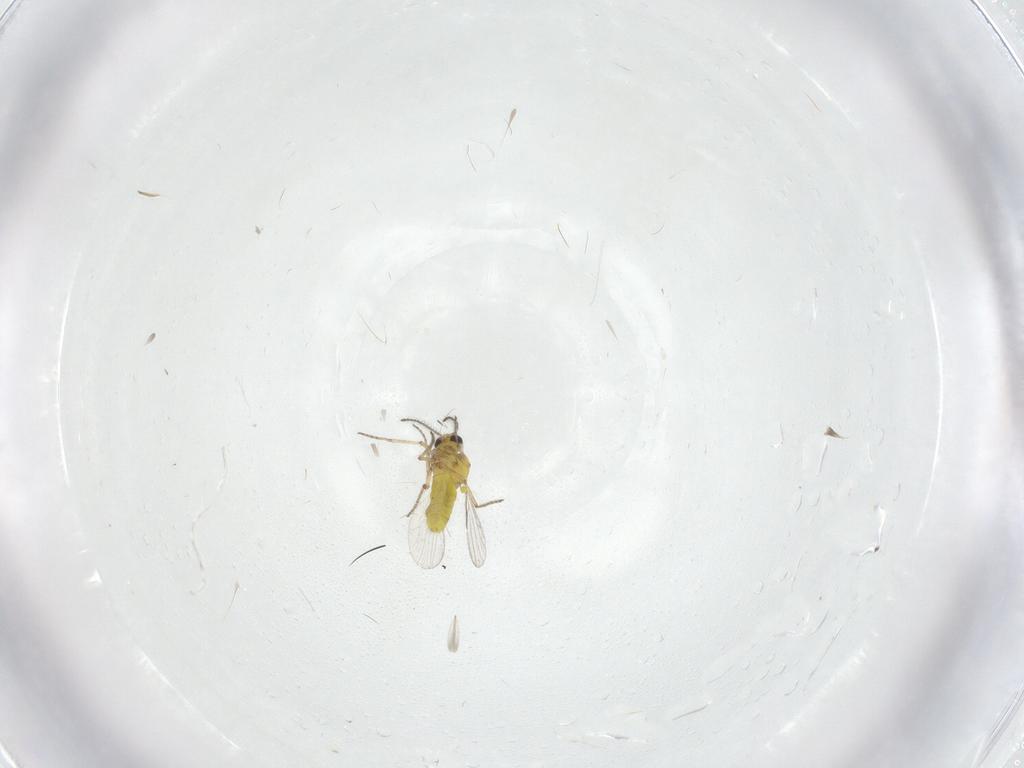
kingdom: Animalia
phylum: Arthropoda
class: Insecta
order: Diptera
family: Ceratopogonidae
